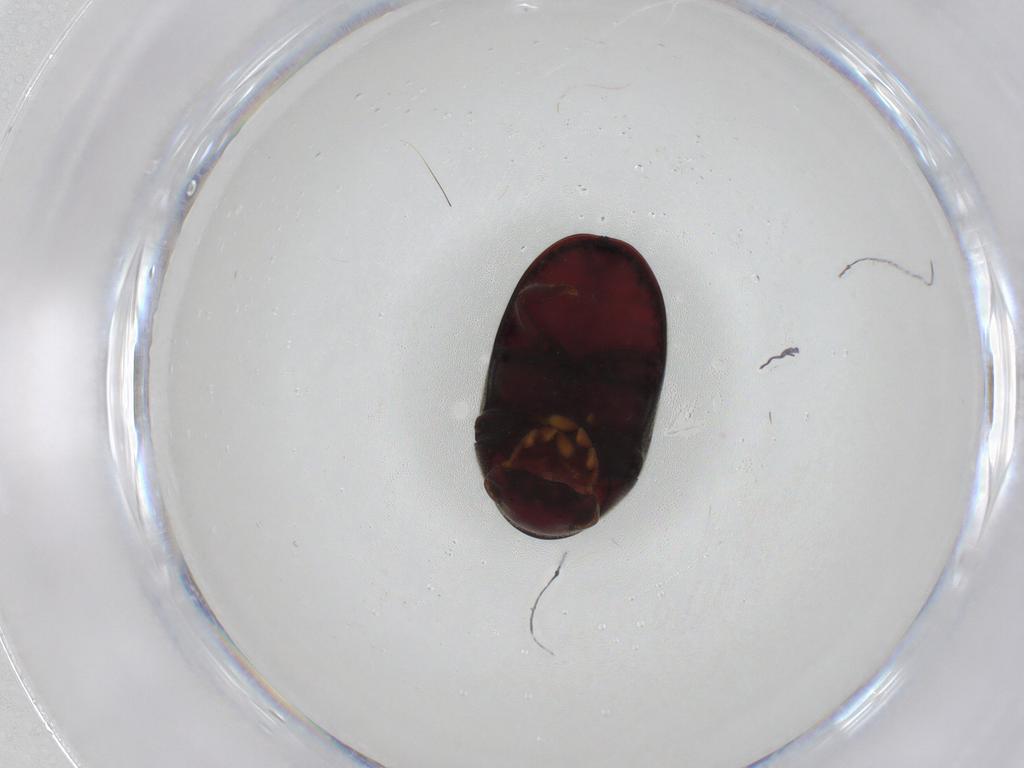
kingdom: Animalia
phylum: Arthropoda
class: Insecta
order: Coleoptera
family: Ptinidae
